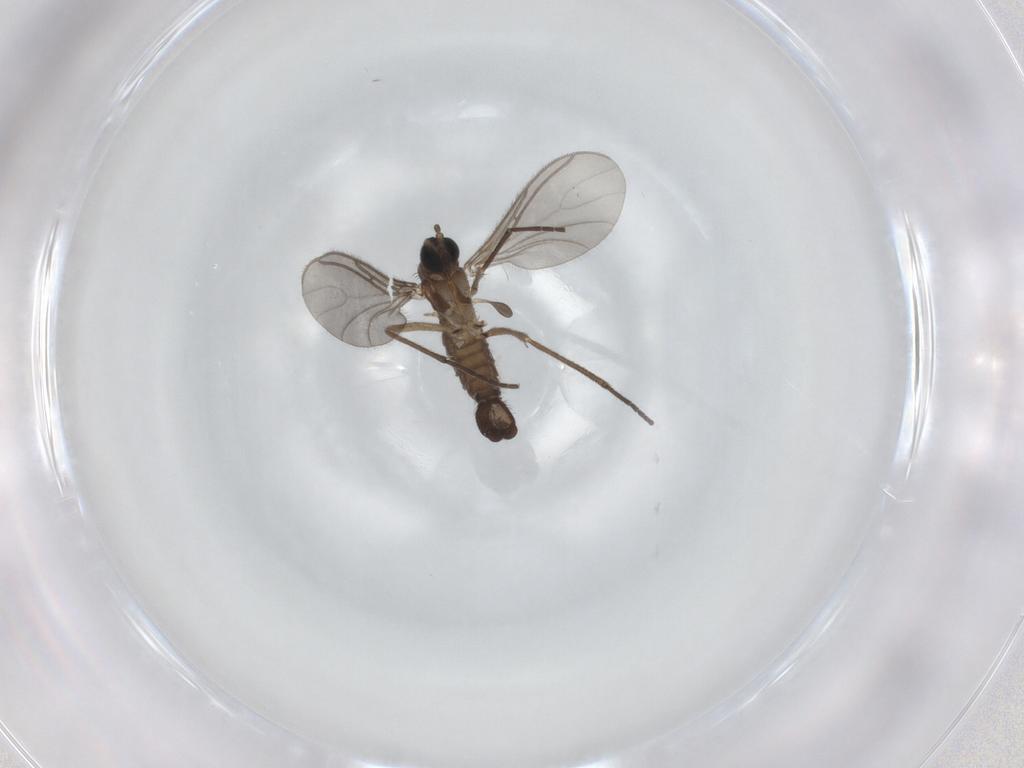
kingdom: Animalia
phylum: Arthropoda
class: Insecta
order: Diptera
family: Sciaridae
